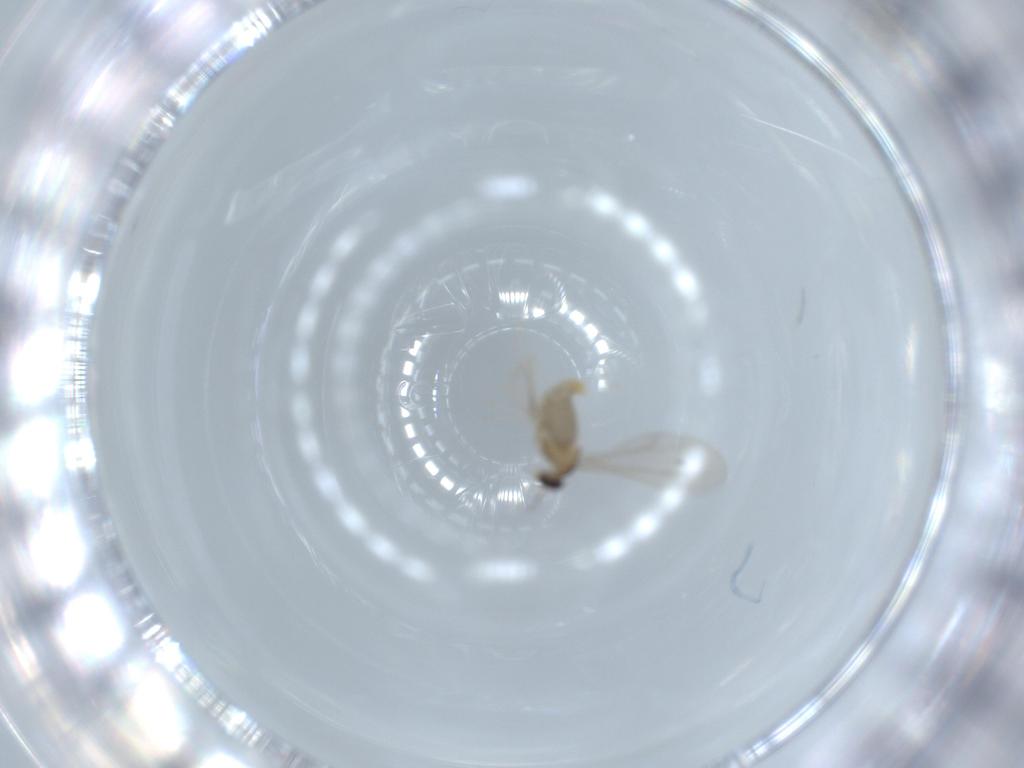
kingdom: Animalia
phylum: Arthropoda
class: Insecta
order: Diptera
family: Cecidomyiidae
